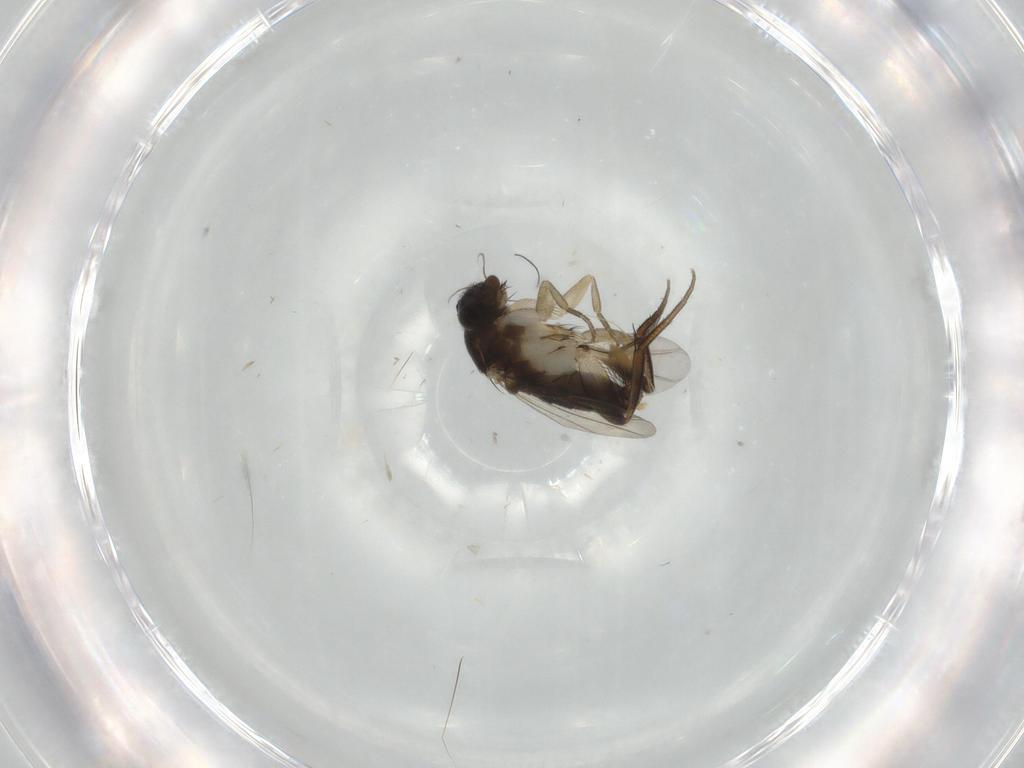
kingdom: Animalia
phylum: Arthropoda
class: Insecta
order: Diptera
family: Phoridae
